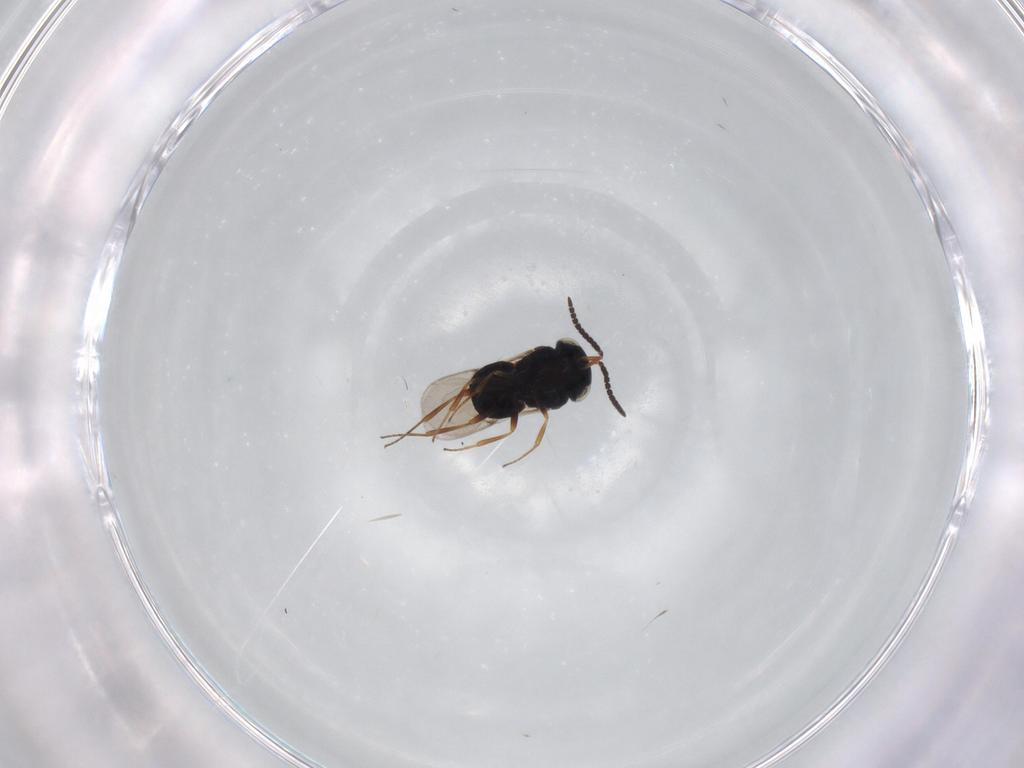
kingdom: Animalia
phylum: Arthropoda
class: Insecta
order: Hymenoptera
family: Scelionidae
